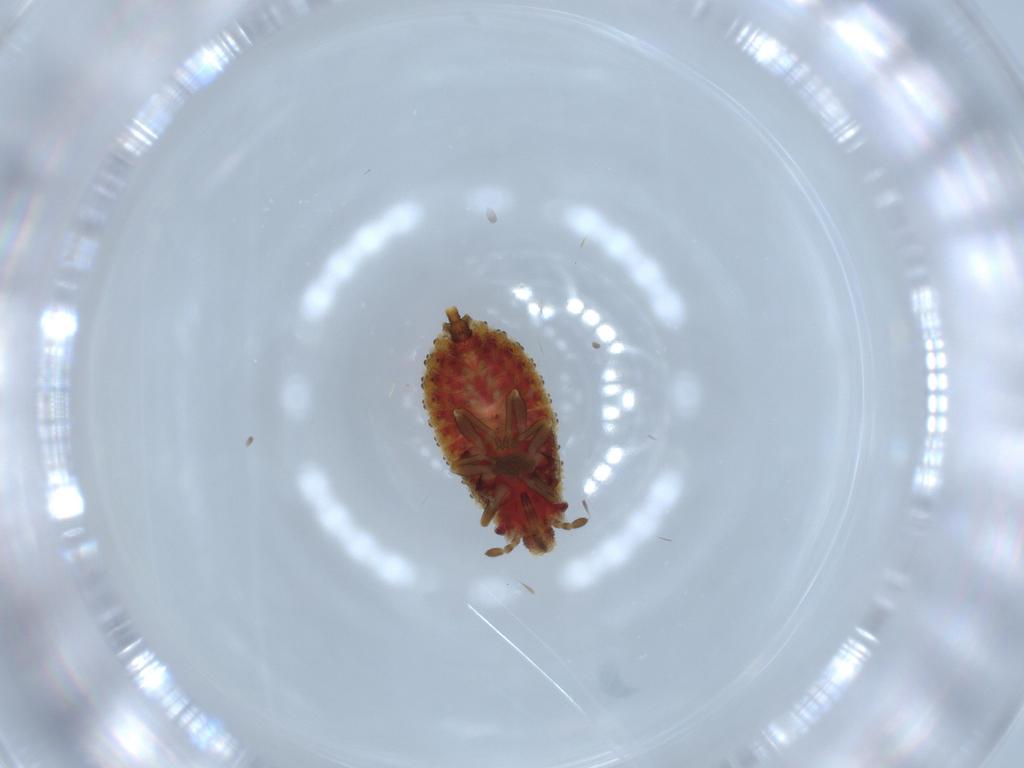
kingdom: Animalia
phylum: Arthropoda
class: Insecta
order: Hemiptera
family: Aradidae
